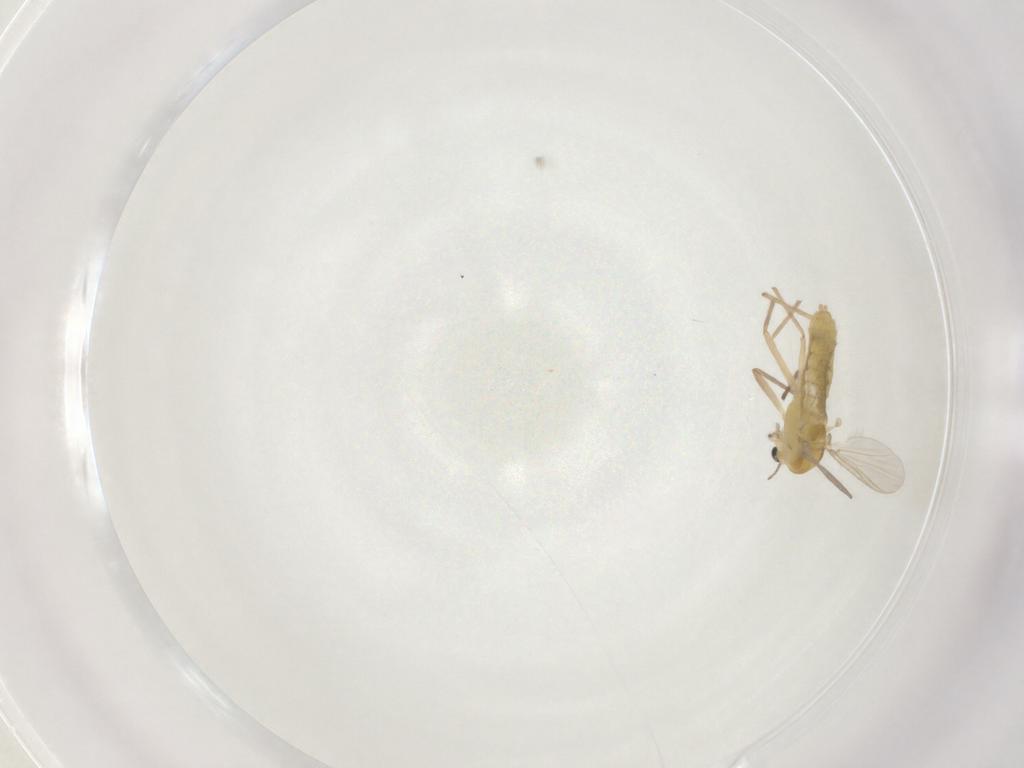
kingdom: Animalia
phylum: Arthropoda
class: Insecta
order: Diptera
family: Chironomidae
